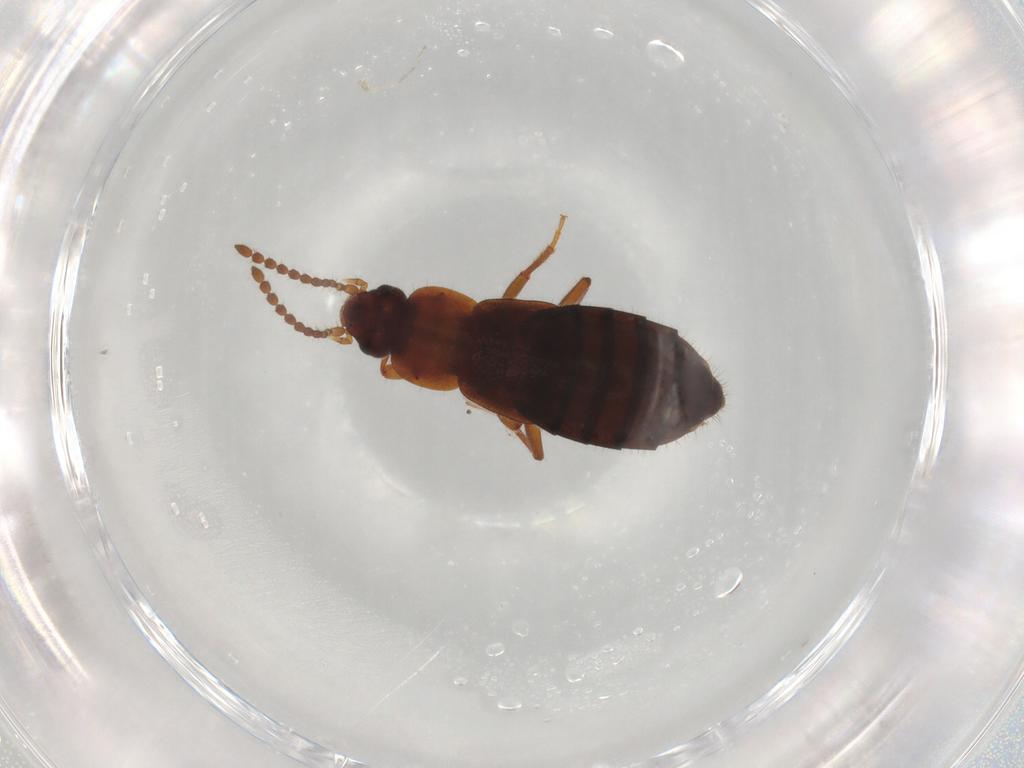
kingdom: Animalia
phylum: Arthropoda
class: Insecta
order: Coleoptera
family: Staphylinidae
